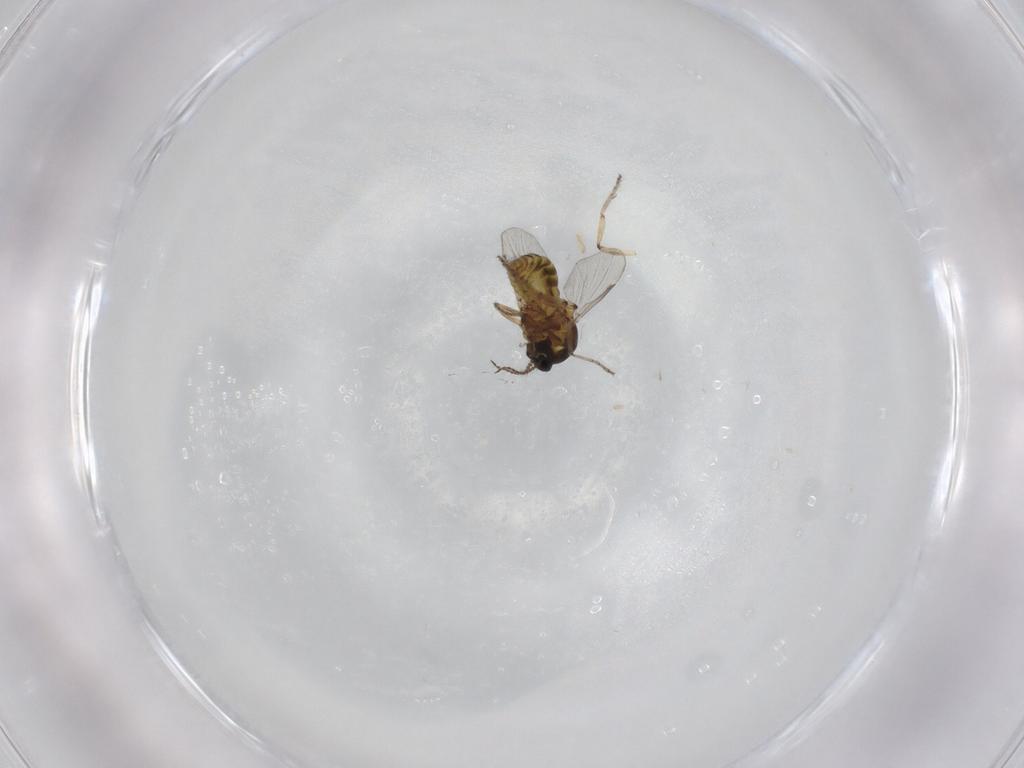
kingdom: Animalia
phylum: Arthropoda
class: Insecta
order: Diptera
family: Ceratopogonidae
